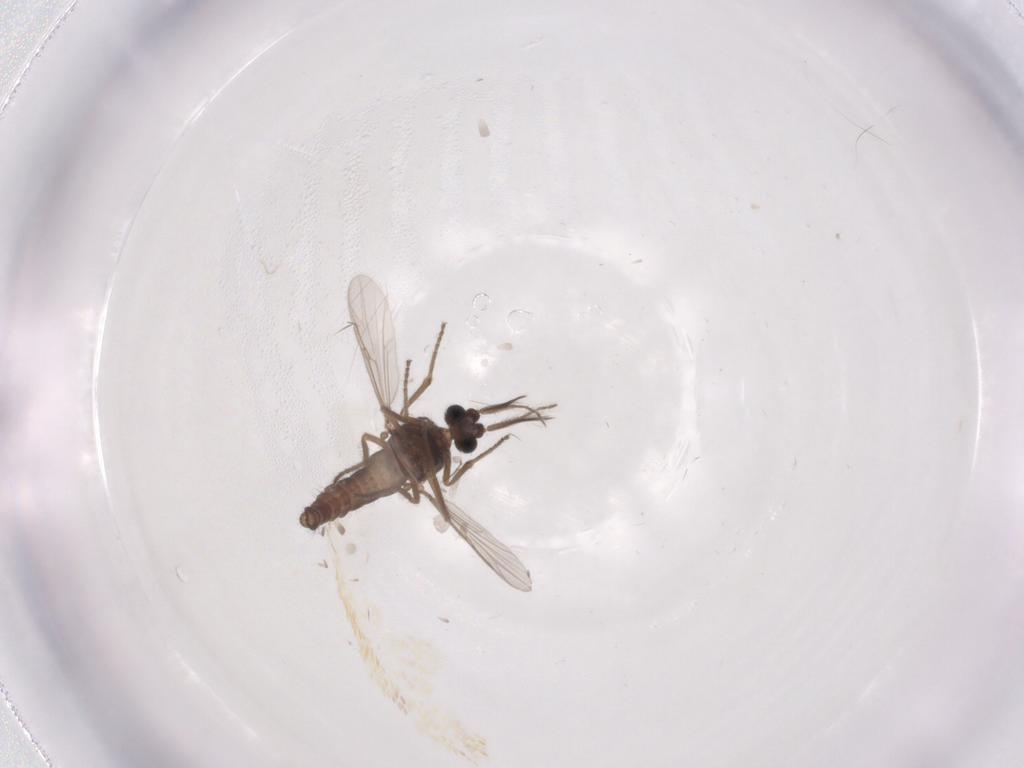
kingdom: Animalia
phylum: Arthropoda
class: Insecta
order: Diptera
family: Ceratopogonidae
